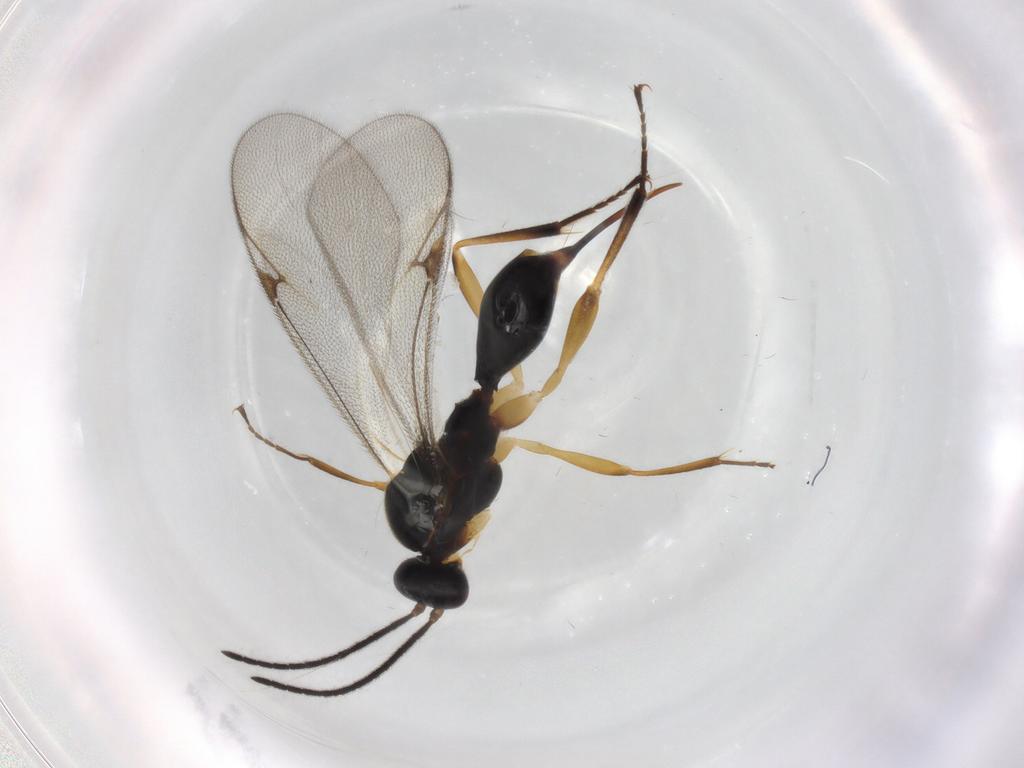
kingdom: Animalia
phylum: Arthropoda
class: Insecta
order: Hymenoptera
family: Proctotrupidae
